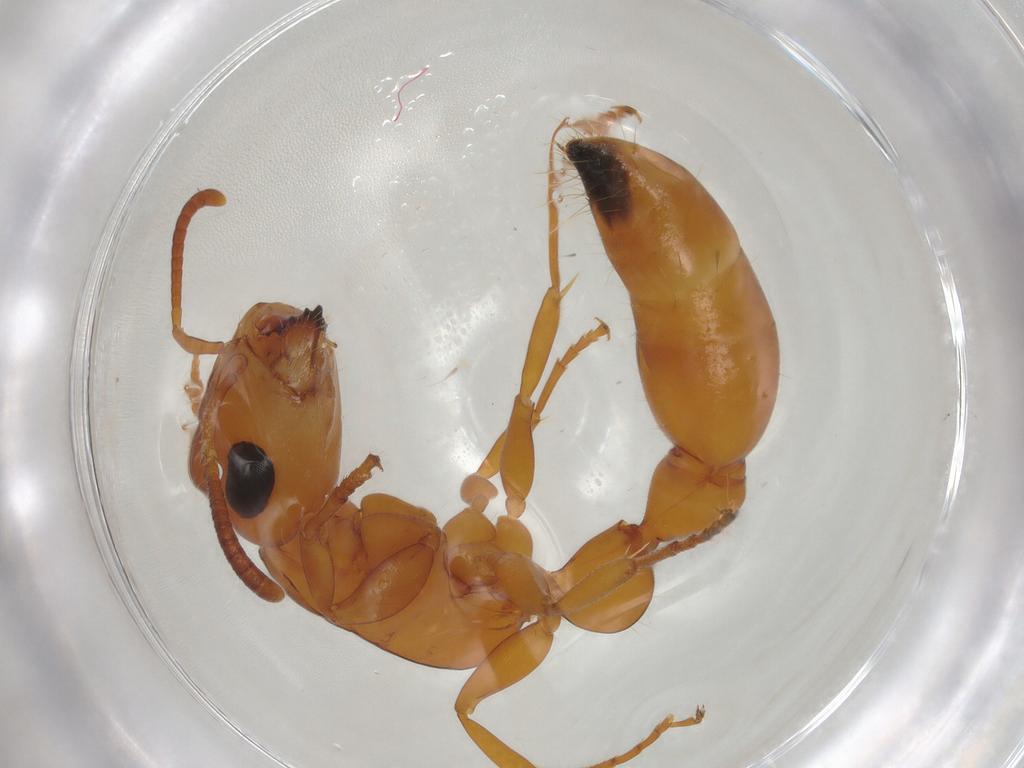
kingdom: Animalia
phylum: Arthropoda
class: Insecta
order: Hymenoptera
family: Formicidae
